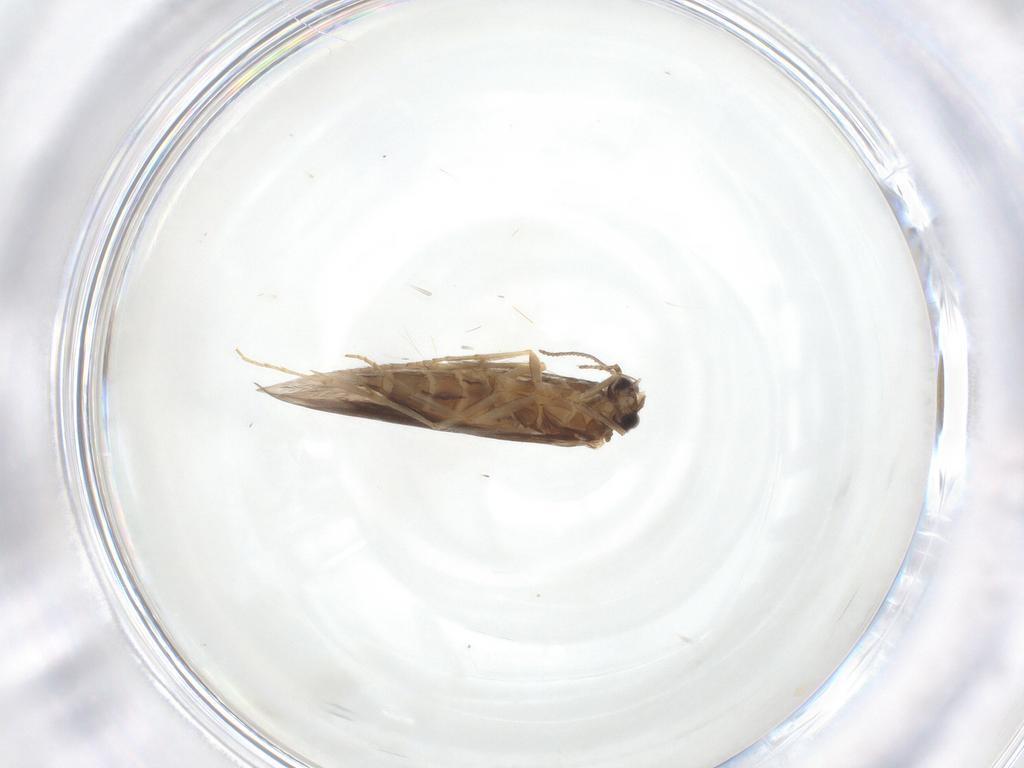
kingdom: Animalia
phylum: Arthropoda
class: Insecta
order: Trichoptera
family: Hydroptilidae
